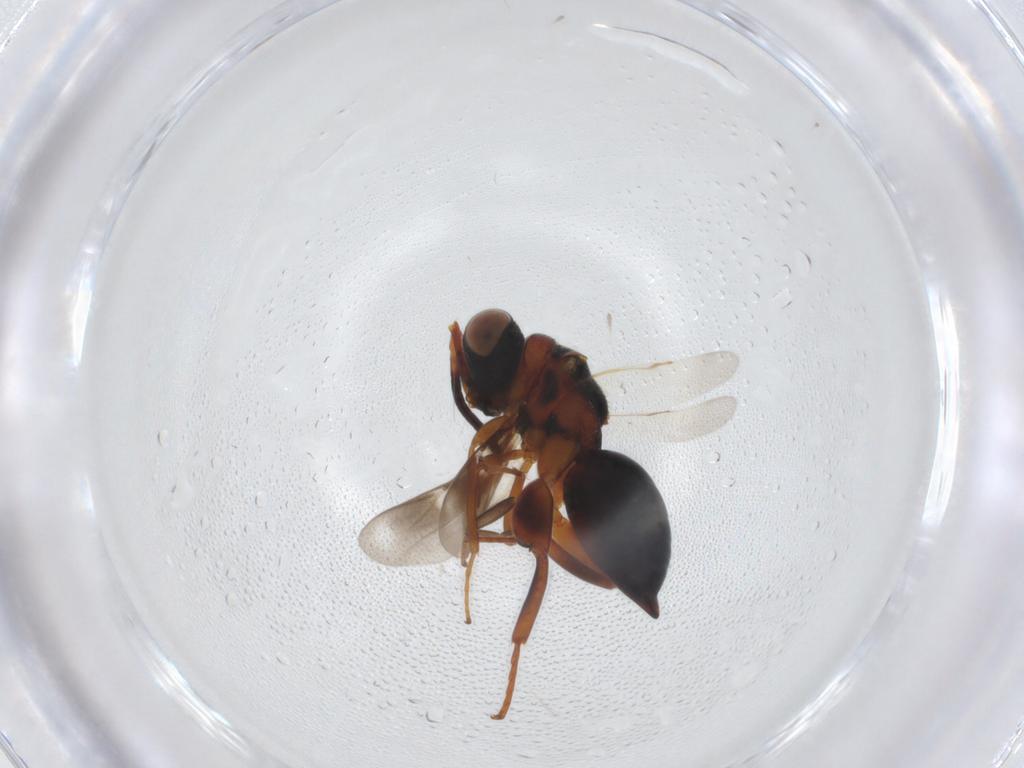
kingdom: Animalia
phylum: Arthropoda
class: Insecta
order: Hymenoptera
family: Chalcididae
